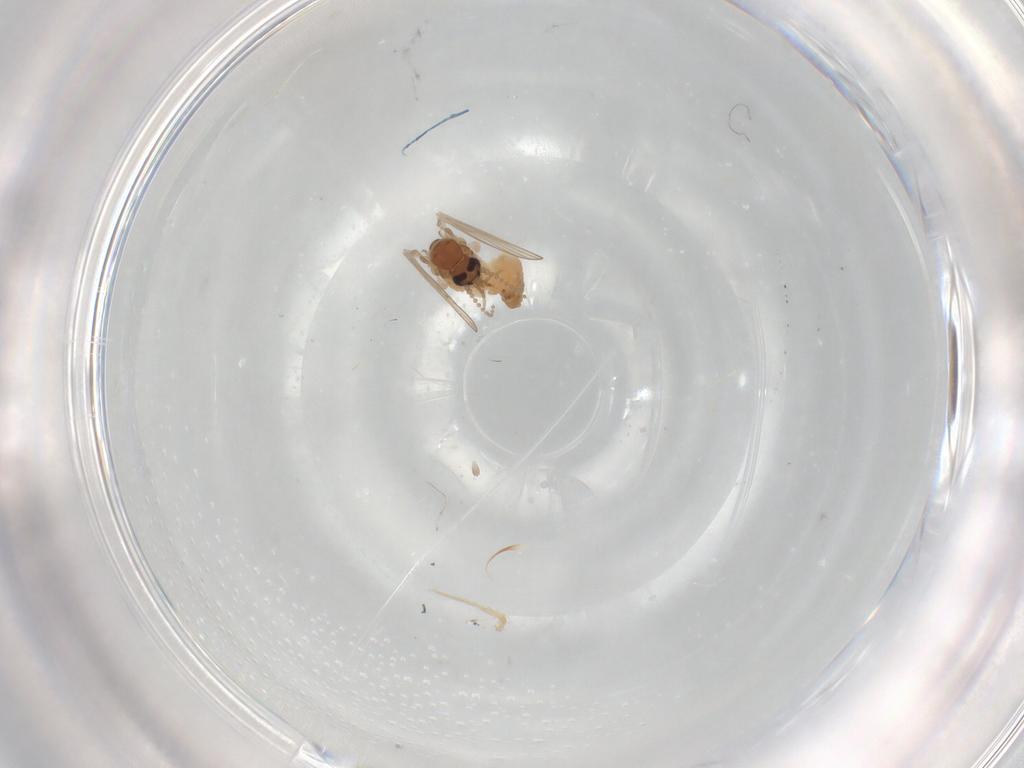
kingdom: Animalia
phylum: Arthropoda
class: Insecta
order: Diptera
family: Psychodidae
